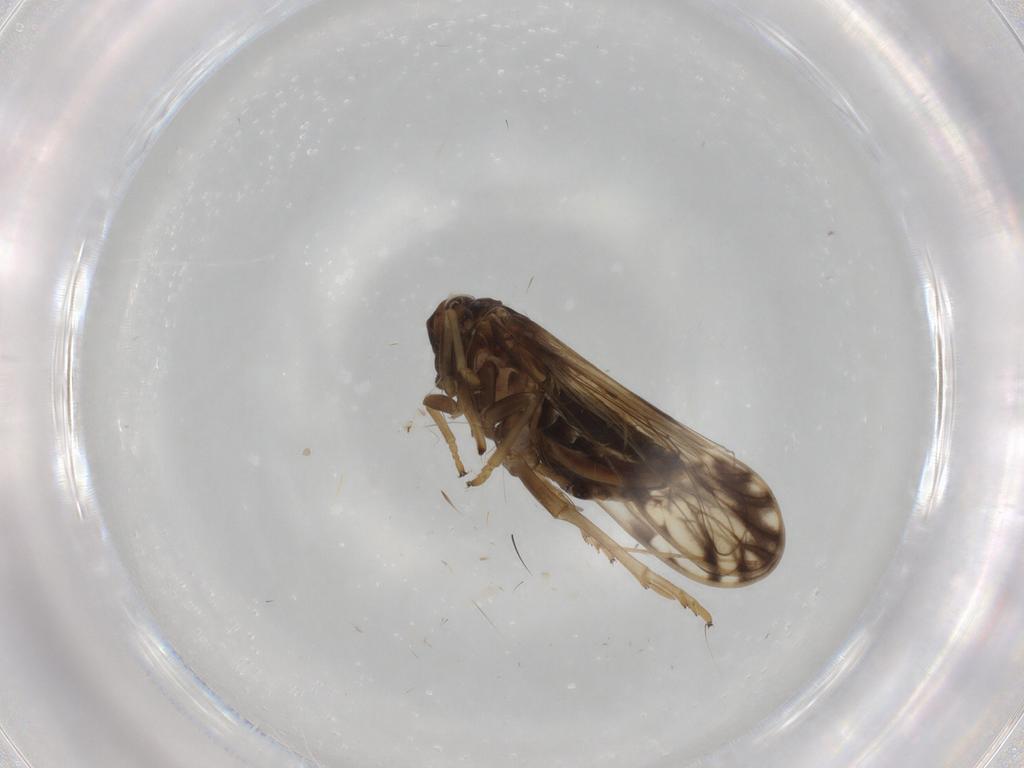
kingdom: Animalia
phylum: Arthropoda
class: Insecta
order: Hemiptera
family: Delphacidae
